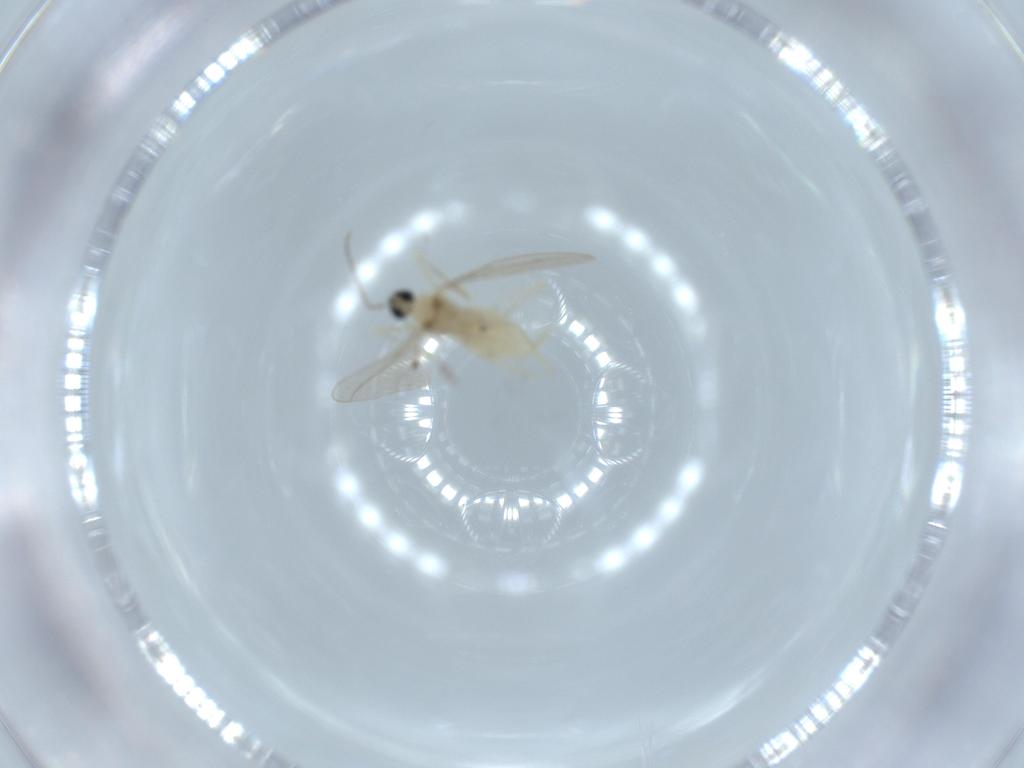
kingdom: Animalia
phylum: Arthropoda
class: Insecta
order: Diptera
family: Cecidomyiidae
